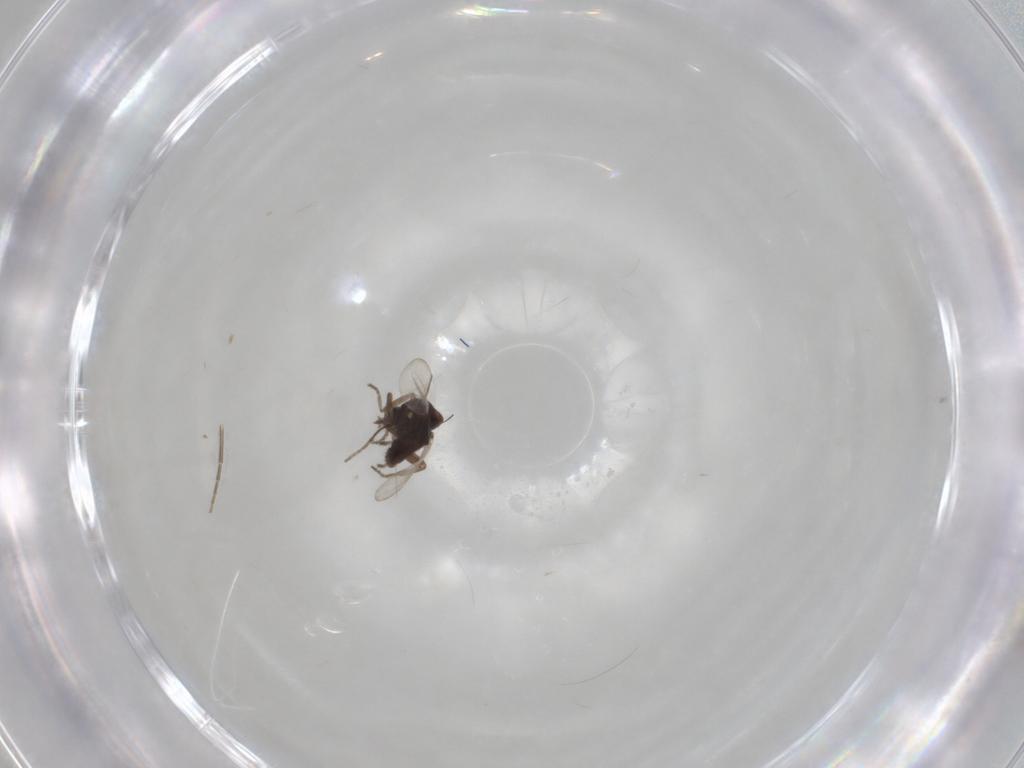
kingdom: Animalia
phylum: Arthropoda
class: Insecta
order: Diptera
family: Ceratopogonidae
